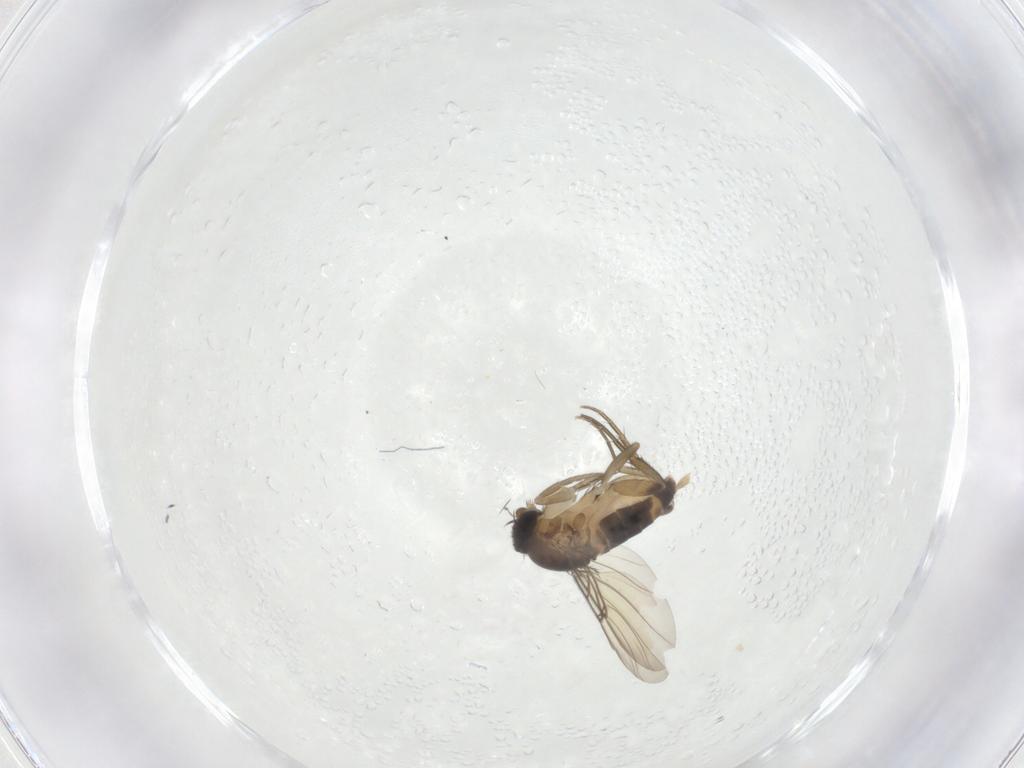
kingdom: Animalia
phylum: Arthropoda
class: Insecta
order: Diptera
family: Phoridae
